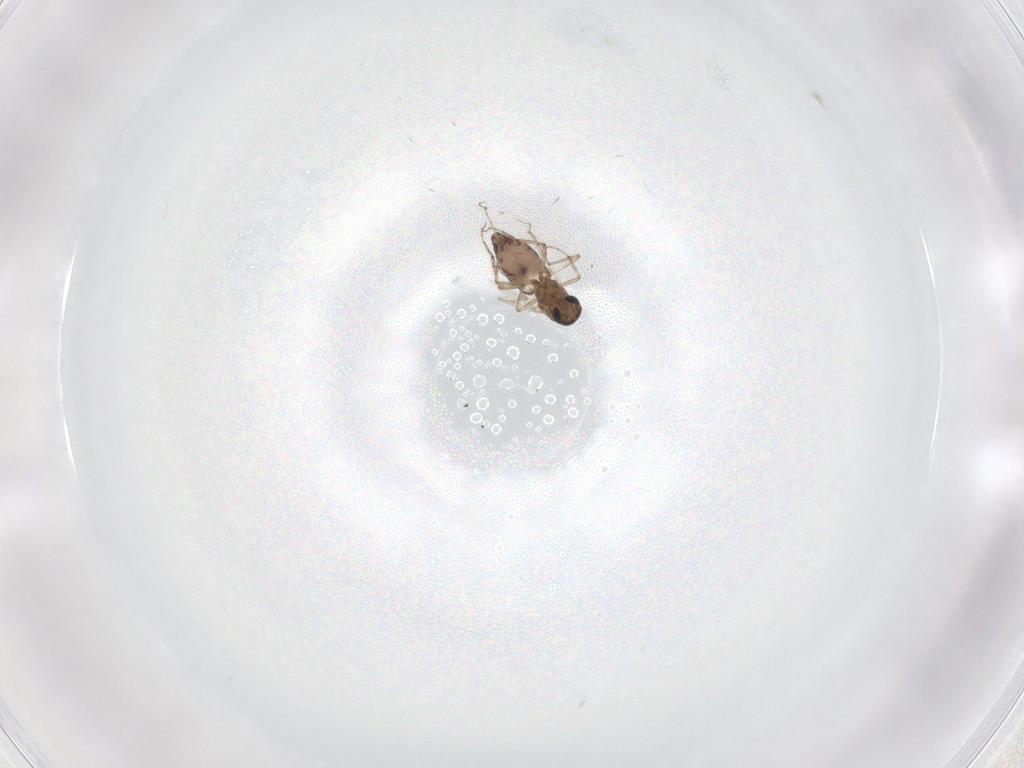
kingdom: Animalia
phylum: Arthropoda
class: Insecta
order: Diptera
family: Ceratopogonidae
